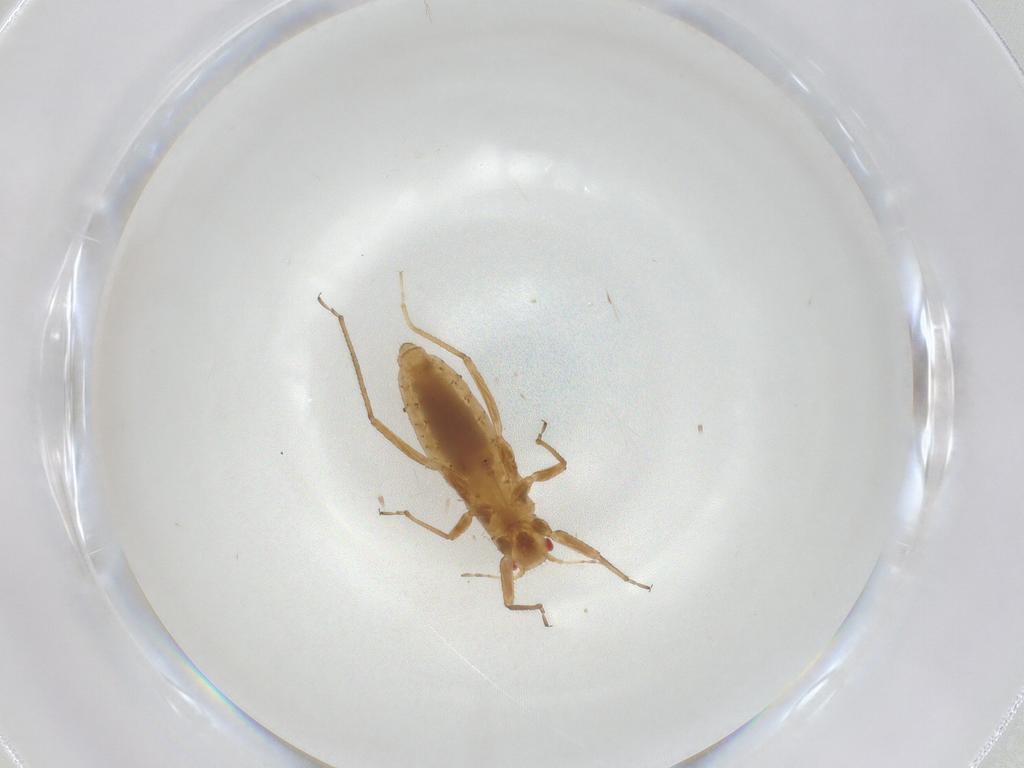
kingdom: Animalia
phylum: Arthropoda
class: Insecta
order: Hemiptera
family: Aphididae
